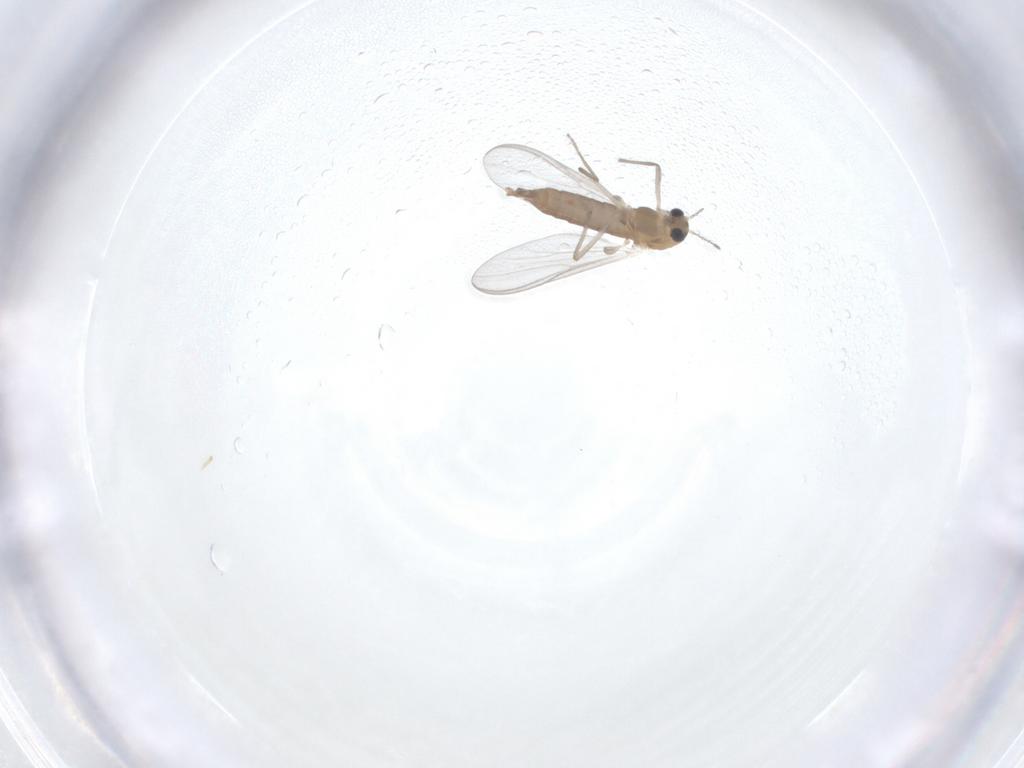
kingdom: Animalia
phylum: Arthropoda
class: Insecta
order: Diptera
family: Chironomidae
